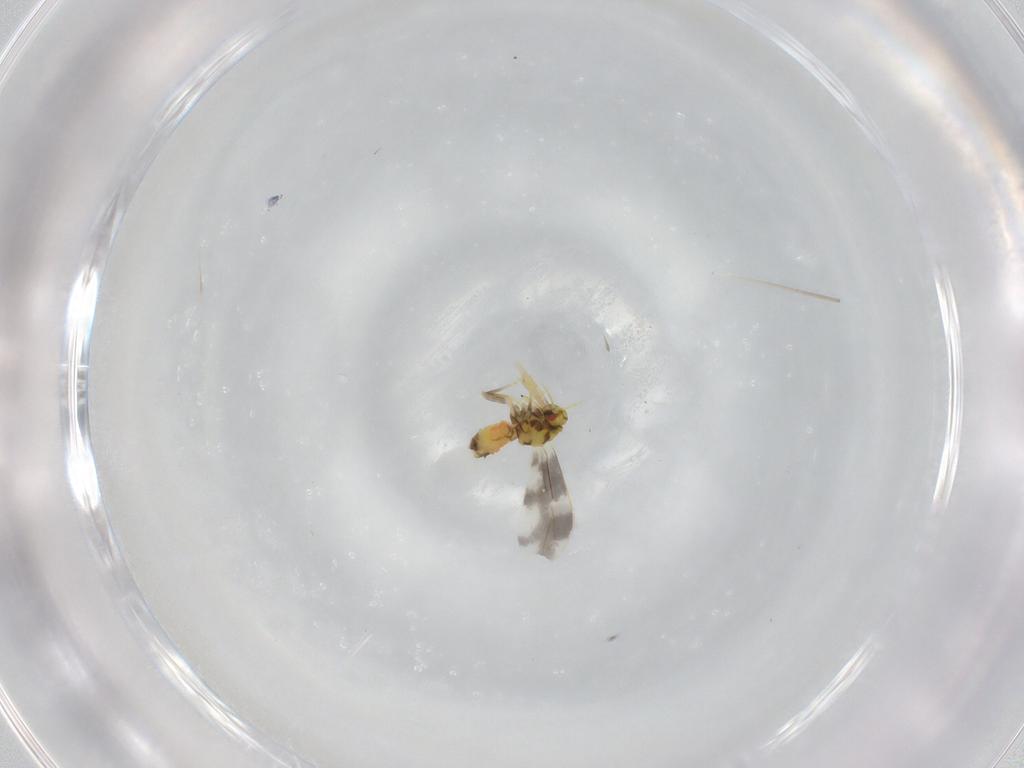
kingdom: Animalia
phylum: Arthropoda
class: Insecta
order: Hemiptera
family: Aleyrodidae
